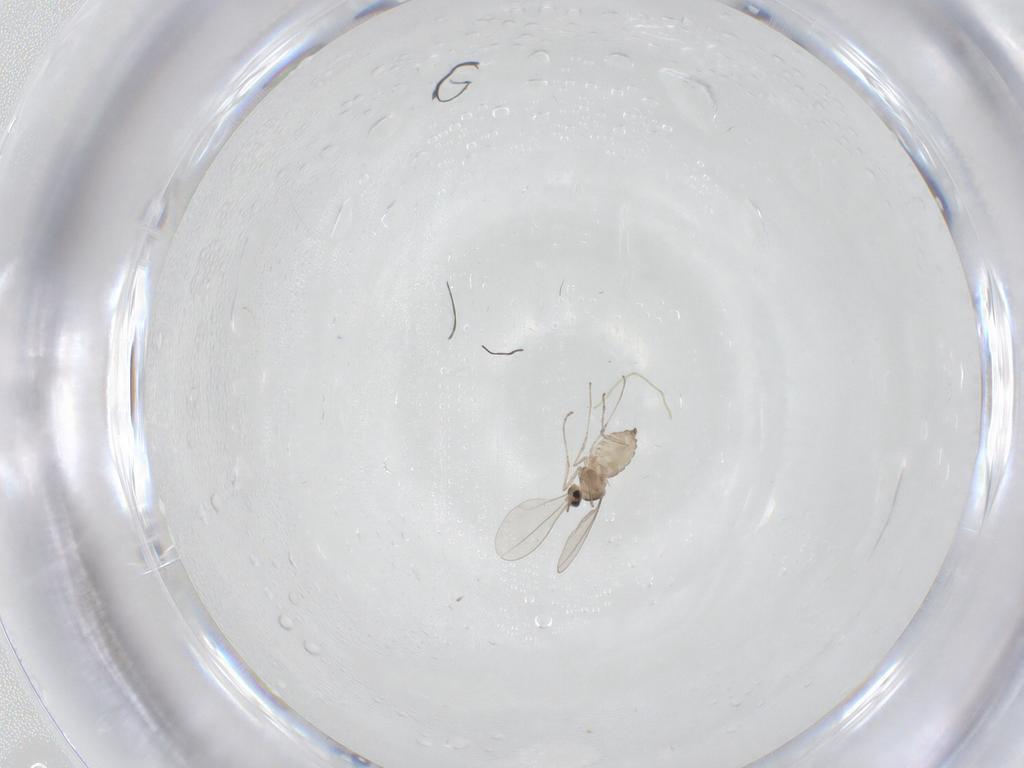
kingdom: Animalia
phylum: Arthropoda
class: Insecta
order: Diptera
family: Cecidomyiidae
